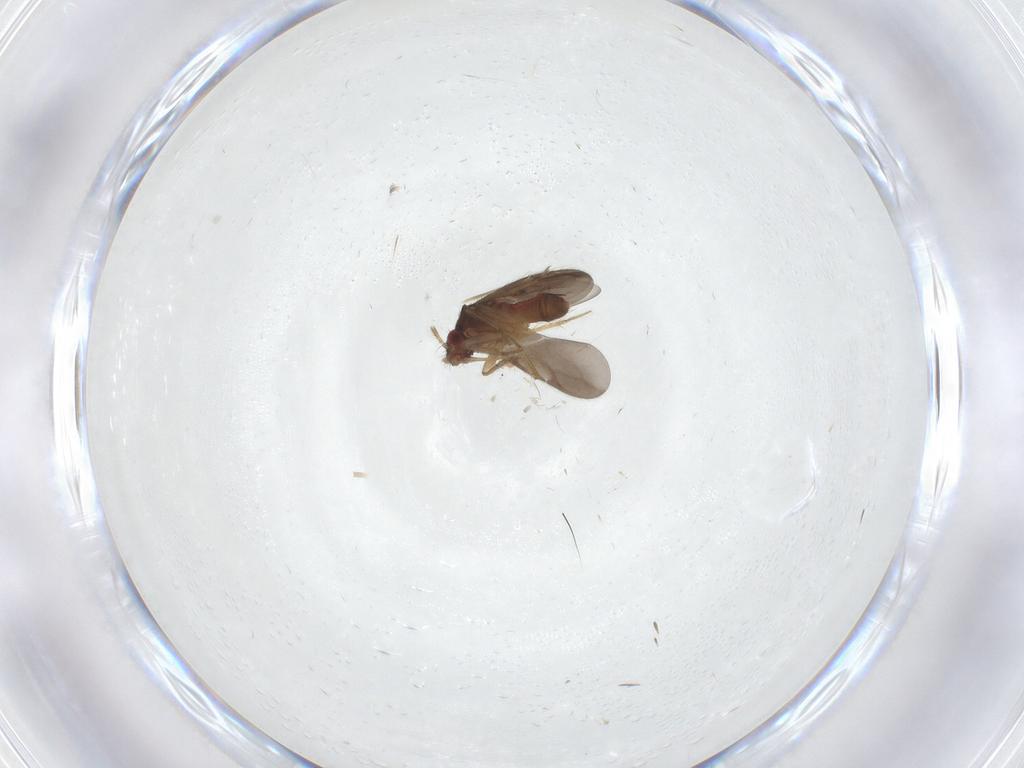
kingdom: Animalia
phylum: Arthropoda
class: Insecta
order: Hemiptera
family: Ceratocombidae
